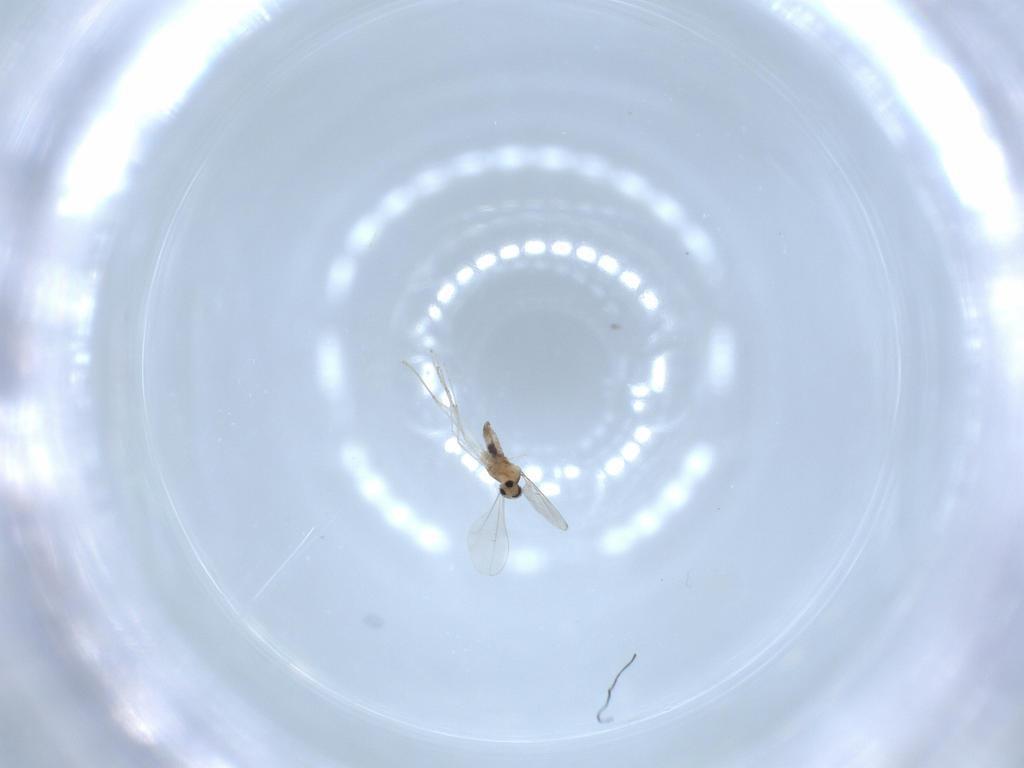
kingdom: Animalia
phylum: Arthropoda
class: Insecta
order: Diptera
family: Cecidomyiidae
